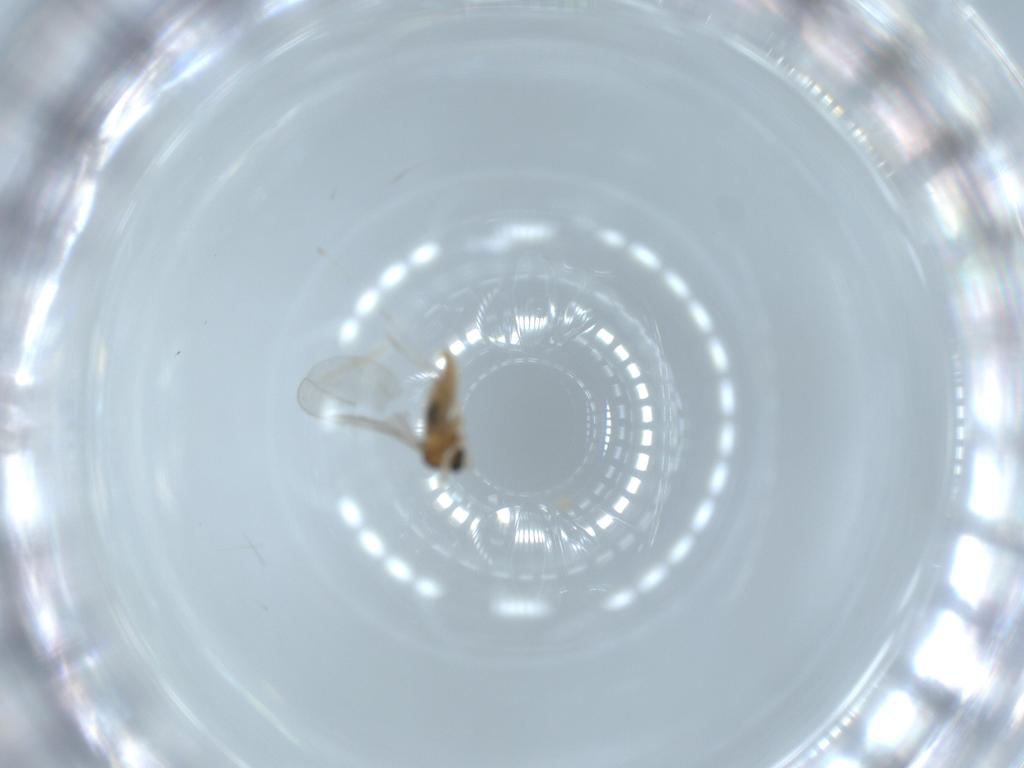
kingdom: Animalia
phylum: Arthropoda
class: Insecta
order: Diptera
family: Cecidomyiidae
